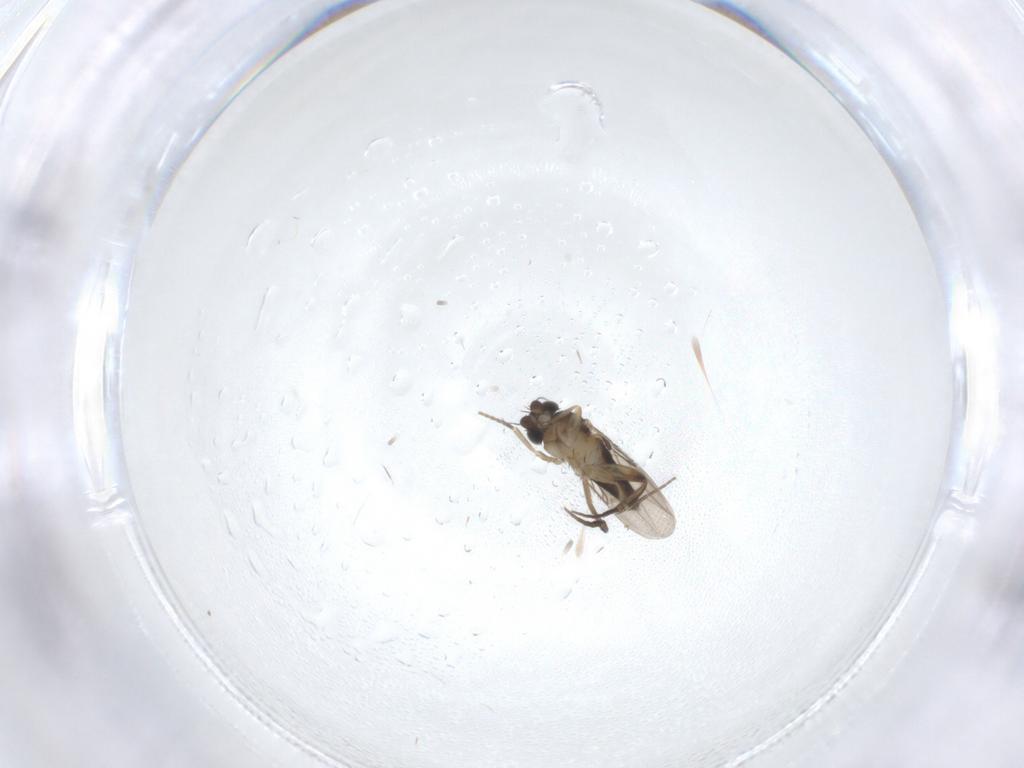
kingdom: Animalia
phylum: Arthropoda
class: Insecta
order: Diptera
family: Phoridae
